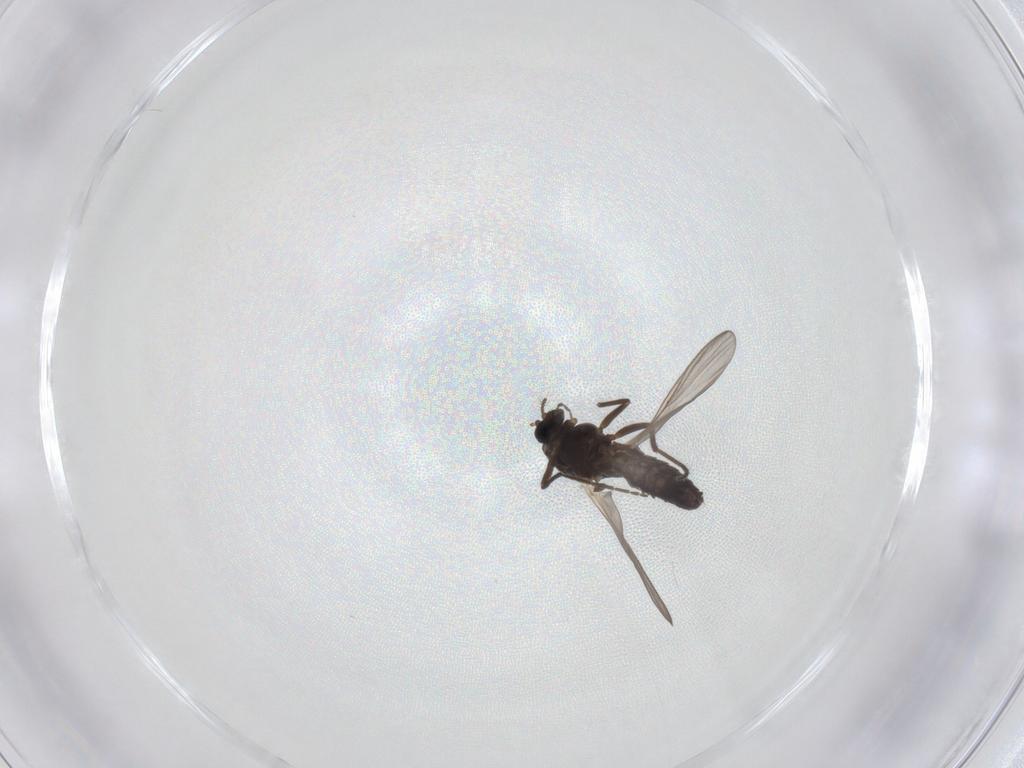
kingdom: Animalia
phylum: Arthropoda
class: Insecta
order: Diptera
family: Chironomidae
